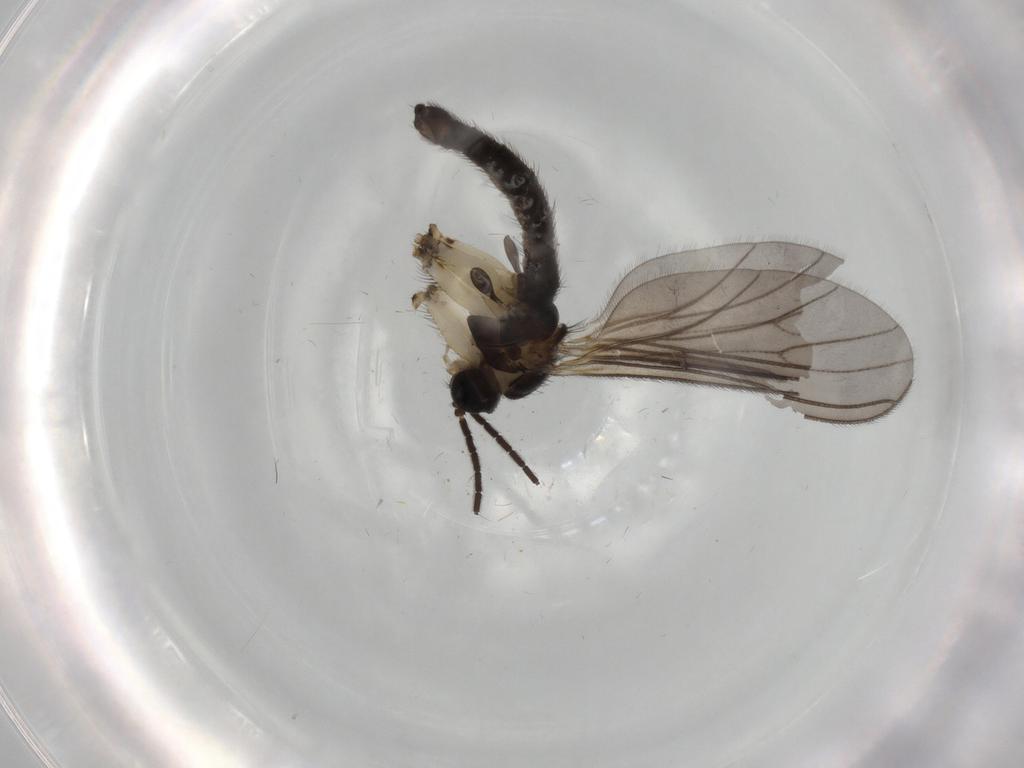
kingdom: Animalia
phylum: Arthropoda
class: Insecta
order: Diptera
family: Sciaridae
